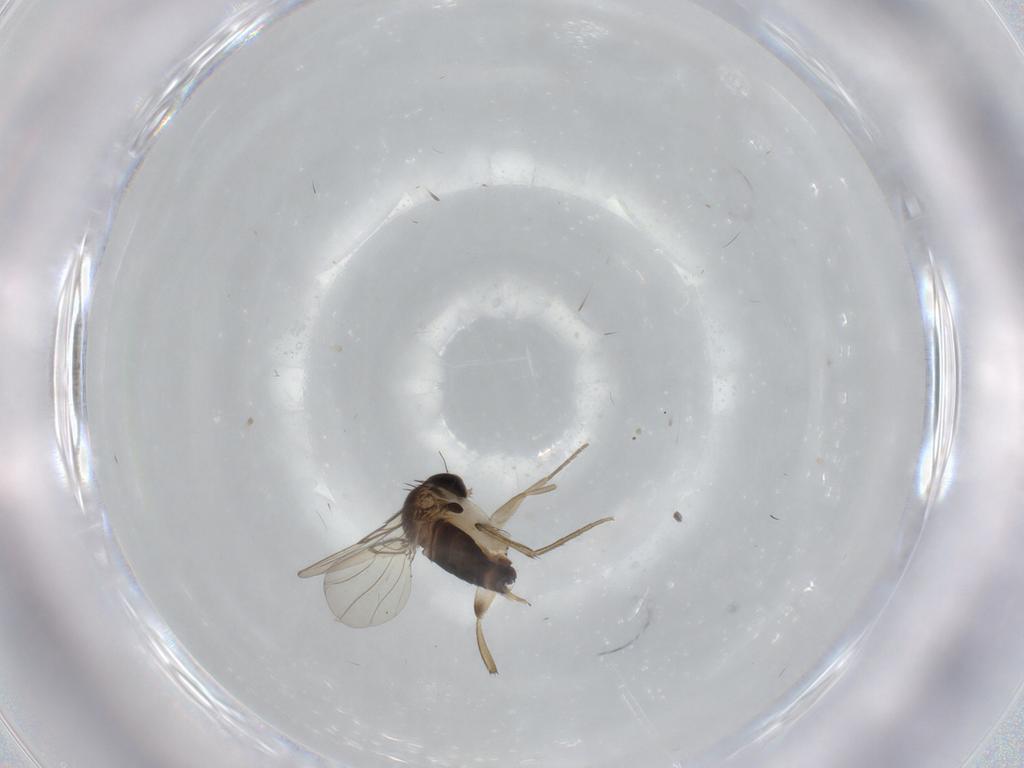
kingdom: Animalia
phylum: Arthropoda
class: Insecta
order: Diptera
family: Phoridae
